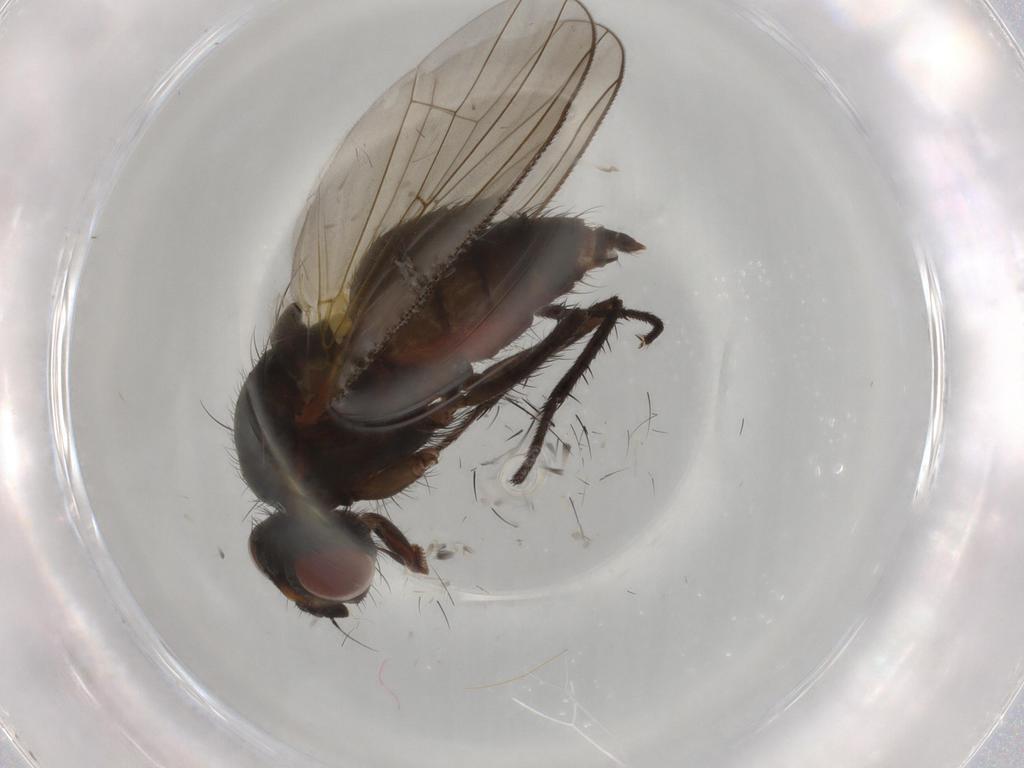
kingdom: Animalia
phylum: Arthropoda
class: Insecta
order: Diptera
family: Anthomyiidae
